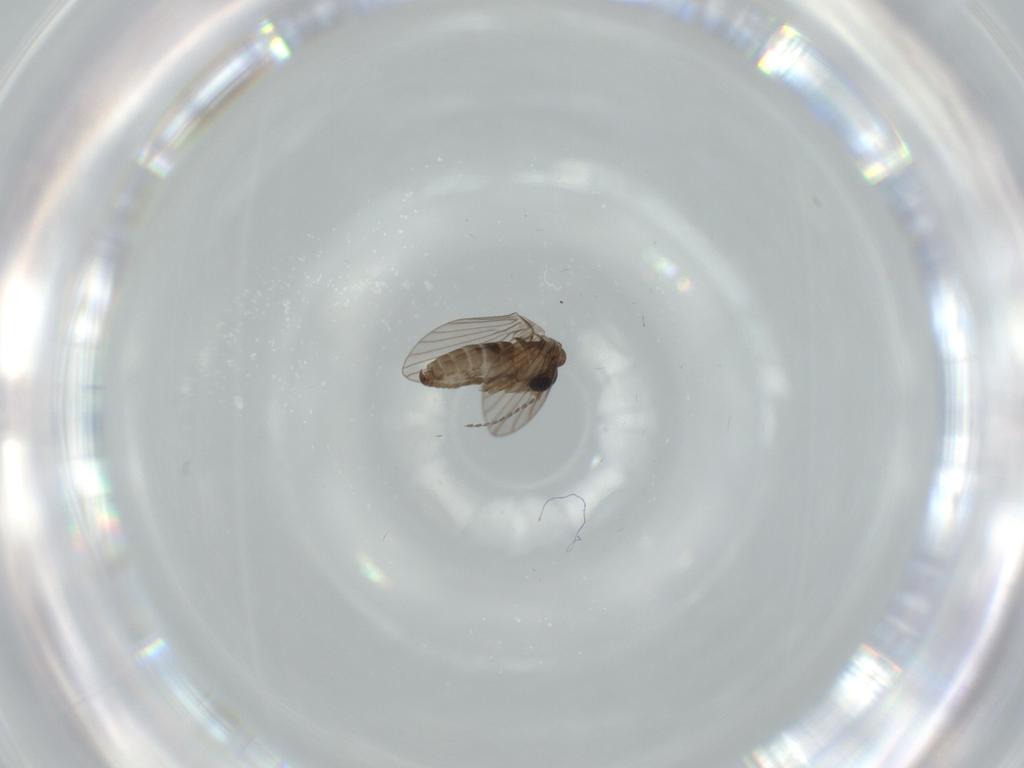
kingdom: Animalia
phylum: Arthropoda
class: Insecta
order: Diptera
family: Psychodidae
